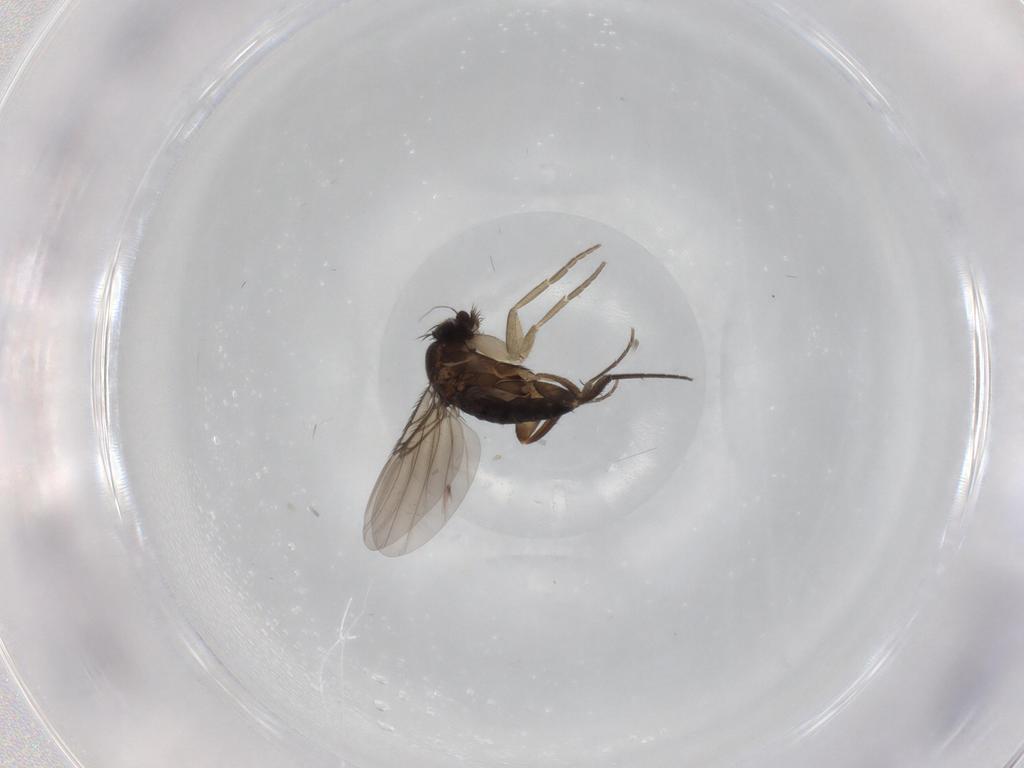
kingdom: Animalia
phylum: Arthropoda
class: Insecta
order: Diptera
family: Phoridae
